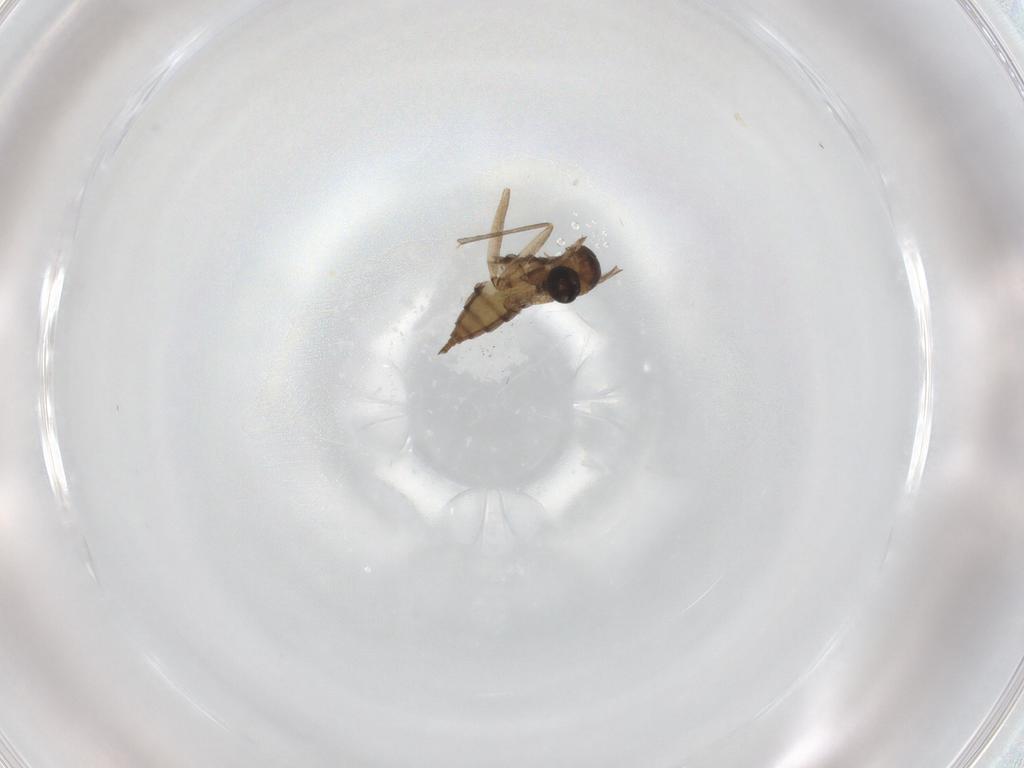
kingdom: Animalia
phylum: Arthropoda
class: Insecta
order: Diptera
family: Sciaridae
